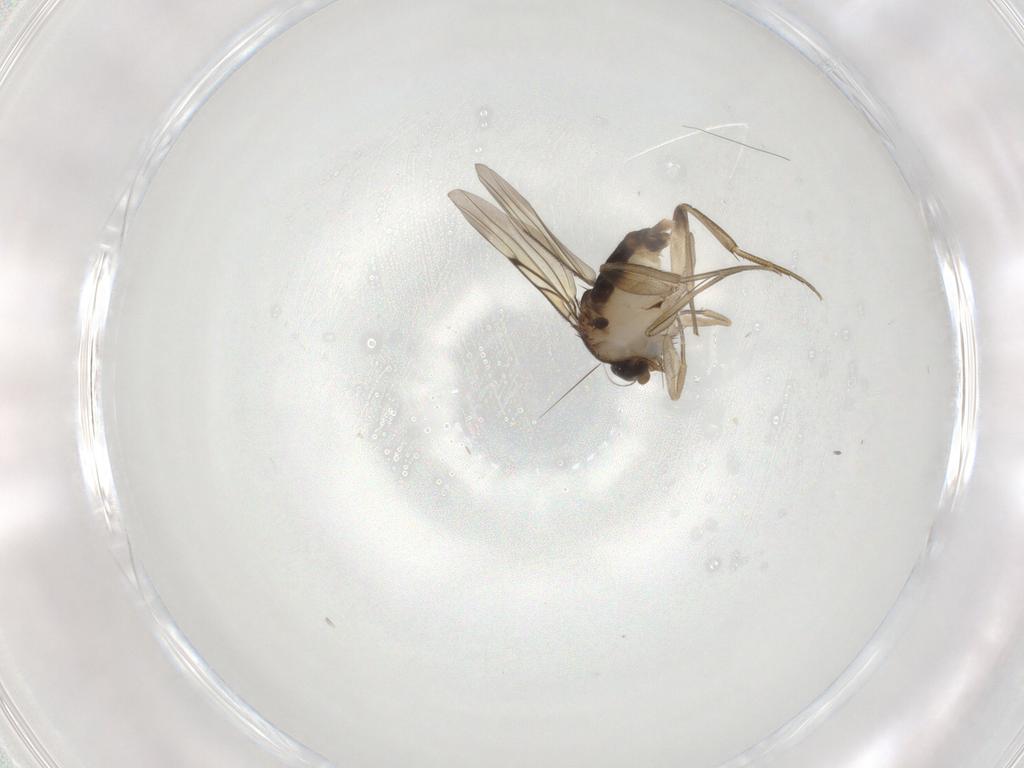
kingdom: Animalia
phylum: Arthropoda
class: Insecta
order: Diptera
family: Phoridae
